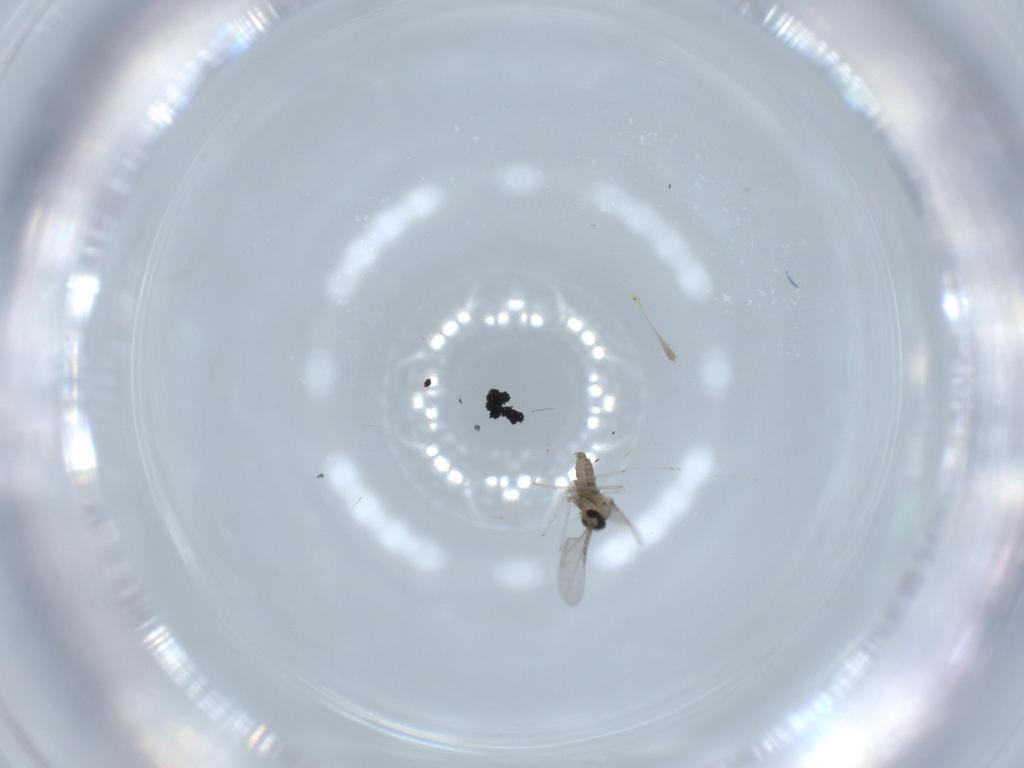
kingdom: Animalia
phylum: Arthropoda
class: Insecta
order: Diptera
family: Cecidomyiidae
